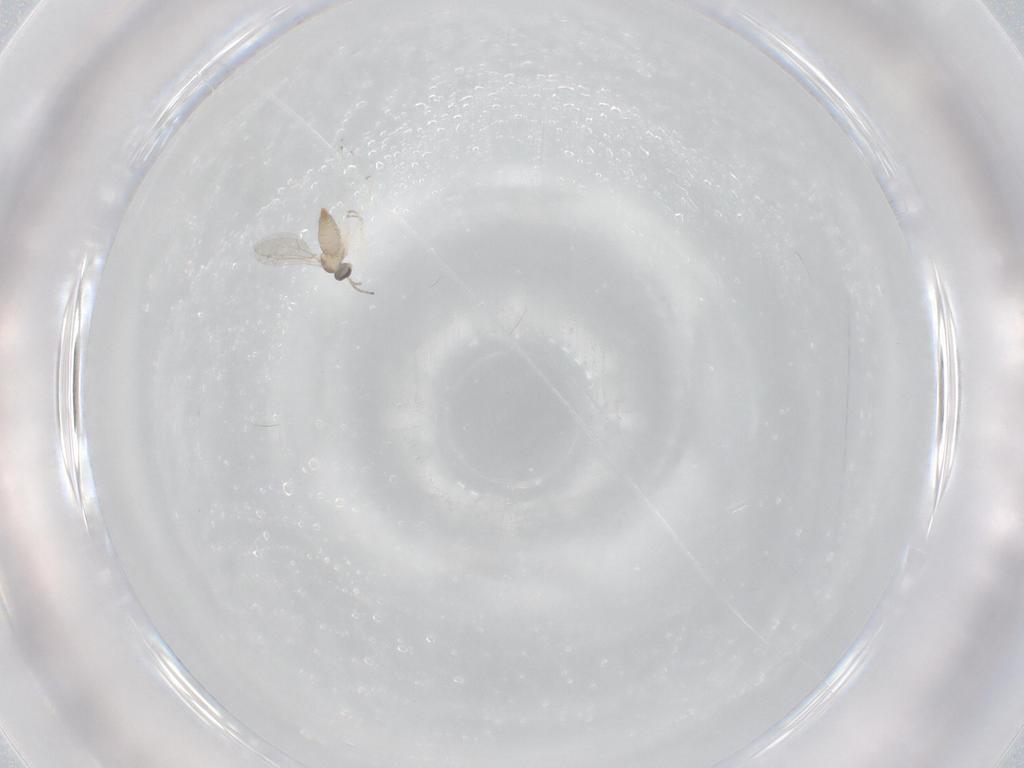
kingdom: Animalia
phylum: Arthropoda
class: Insecta
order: Diptera
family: Cecidomyiidae
